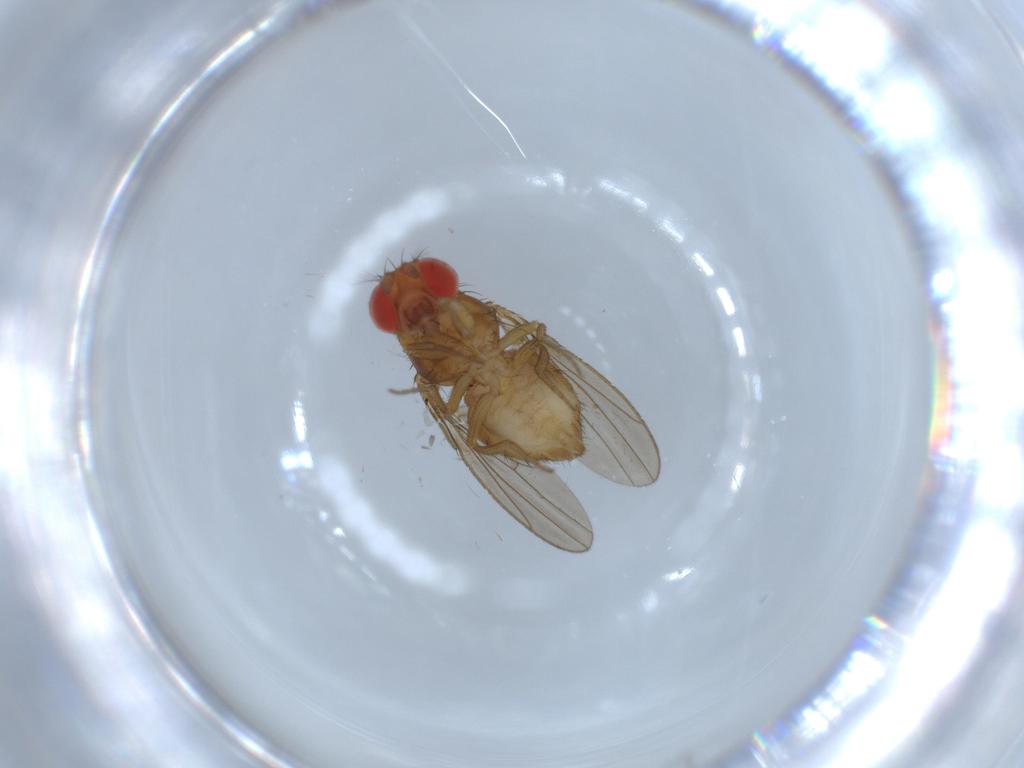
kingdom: Animalia
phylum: Arthropoda
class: Insecta
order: Diptera
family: Drosophilidae
